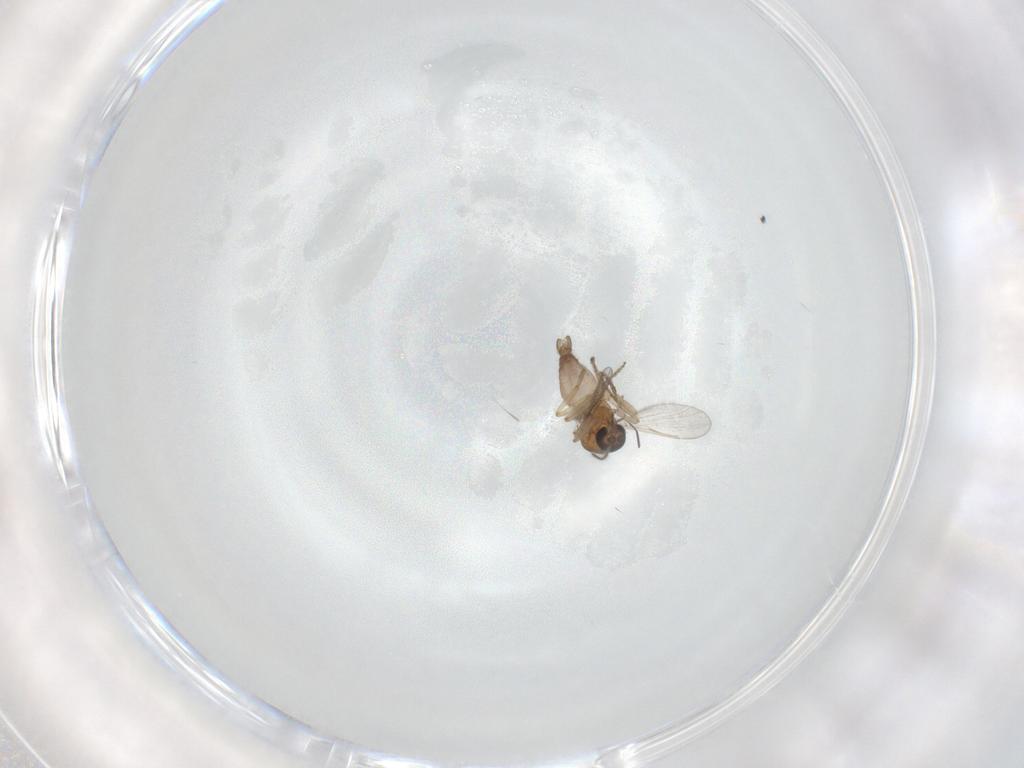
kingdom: Animalia
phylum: Arthropoda
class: Insecta
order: Diptera
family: Chironomidae
